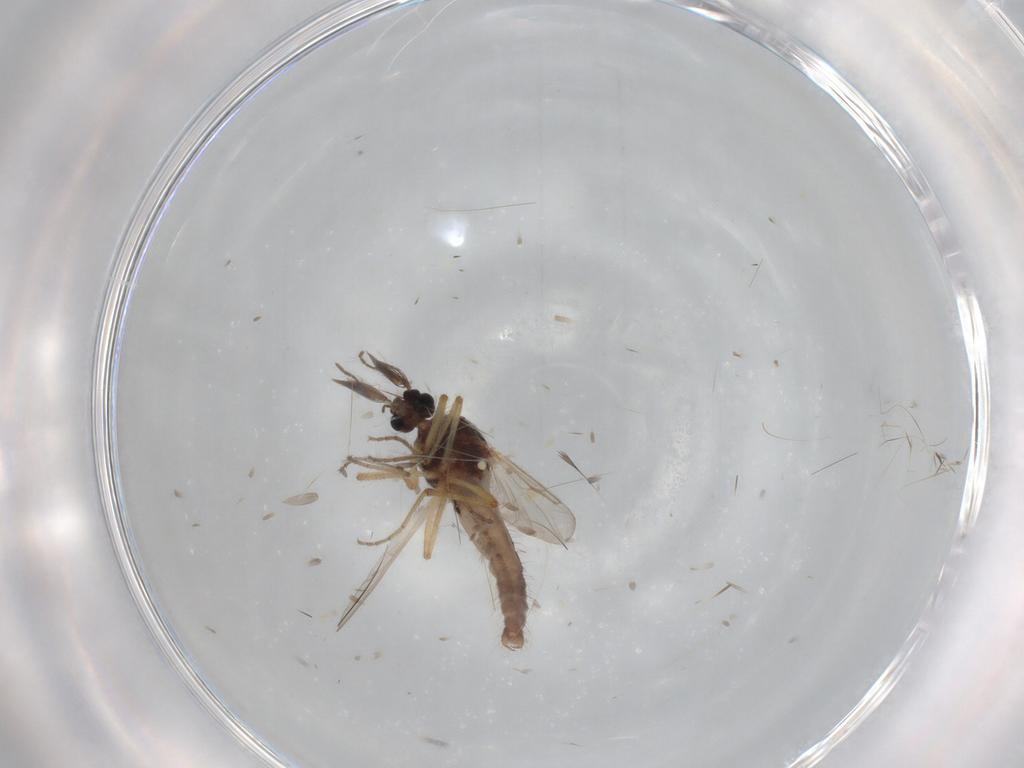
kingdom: Animalia
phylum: Arthropoda
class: Insecta
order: Diptera
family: Ceratopogonidae
